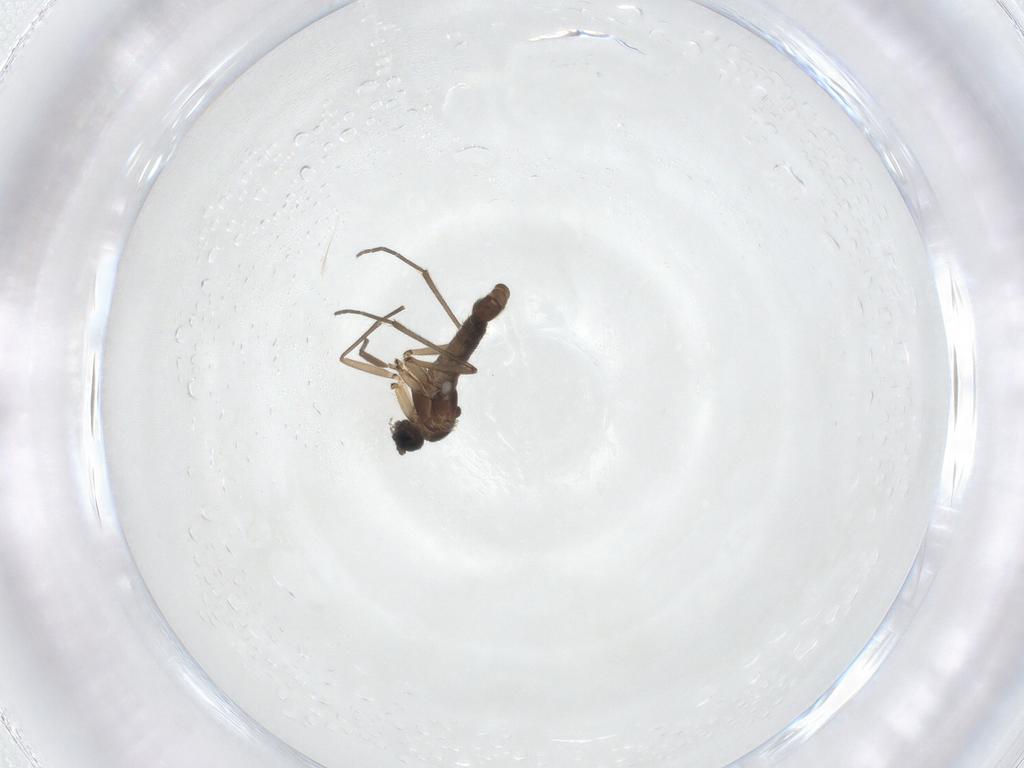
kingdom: Animalia
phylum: Arthropoda
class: Insecta
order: Diptera
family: Sciaridae
